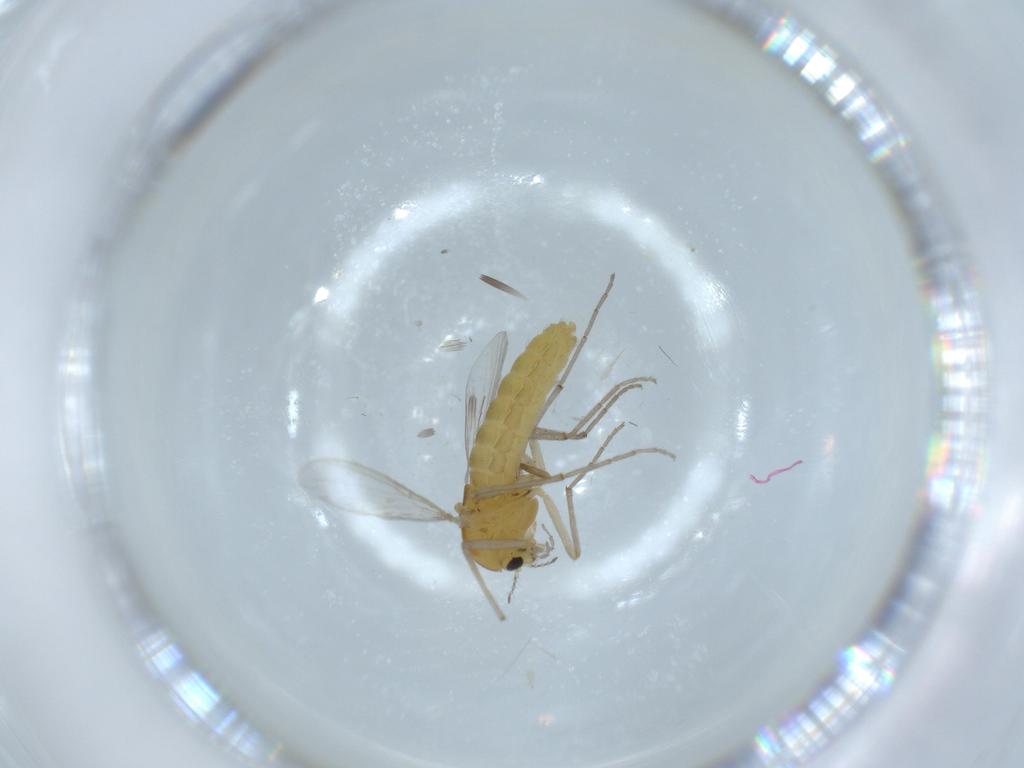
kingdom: Animalia
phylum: Arthropoda
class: Insecta
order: Diptera
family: Chironomidae
